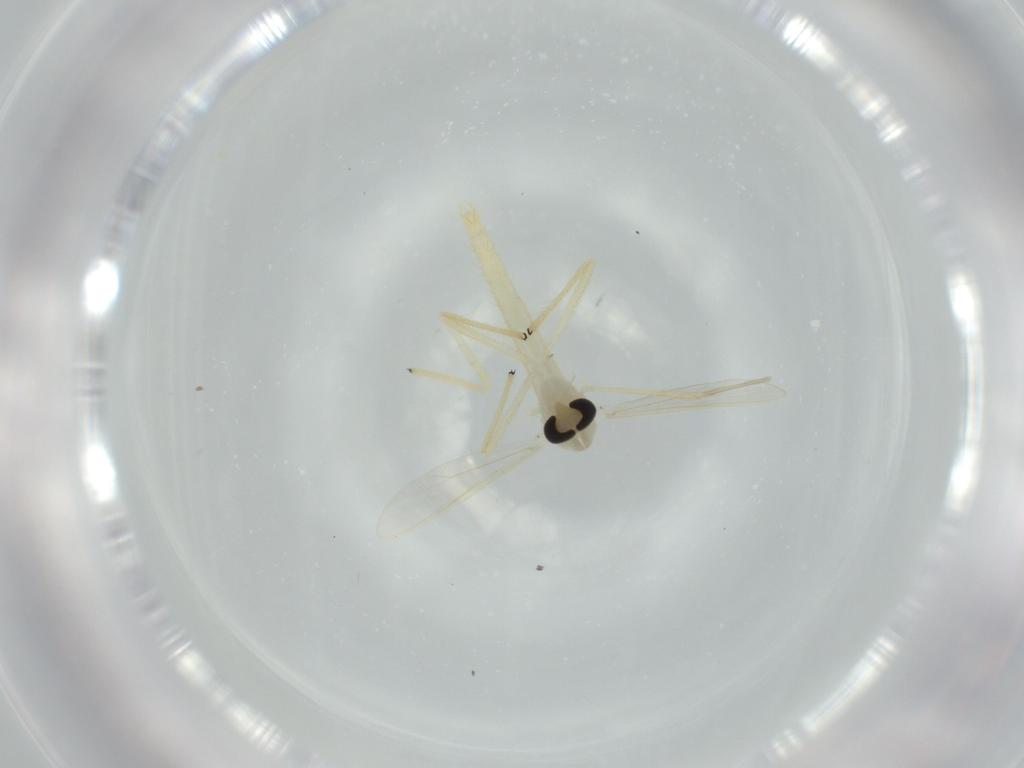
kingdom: Animalia
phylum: Arthropoda
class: Insecta
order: Diptera
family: Chironomidae
